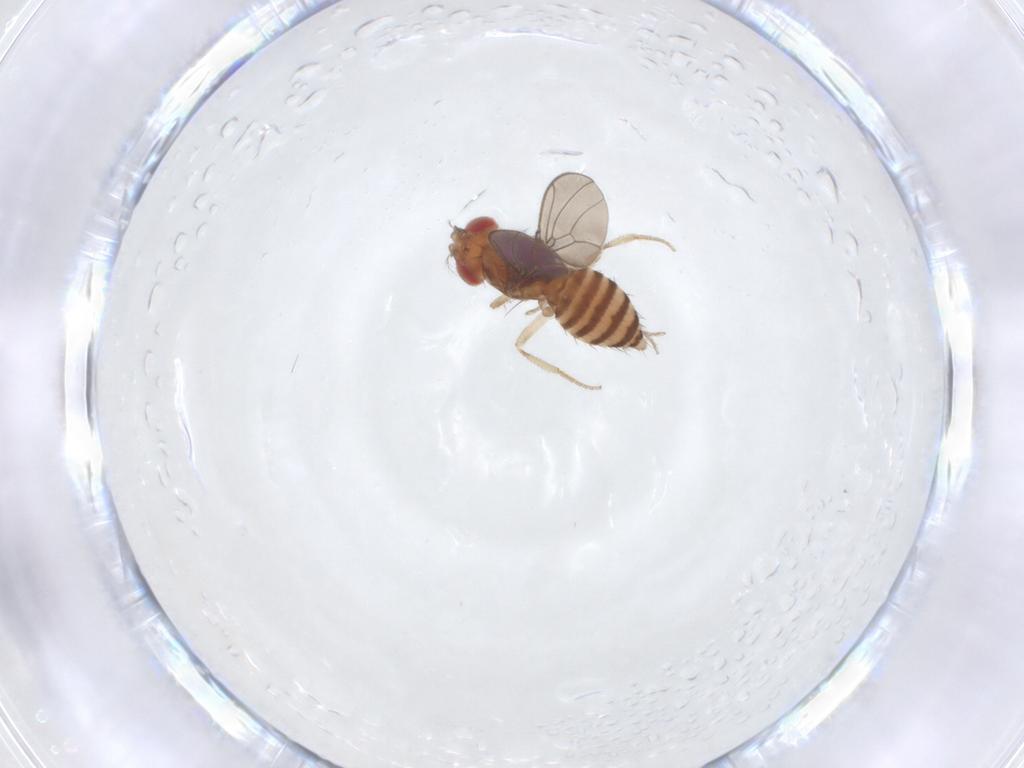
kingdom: Animalia
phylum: Arthropoda
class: Insecta
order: Diptera
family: Drosophilidae
